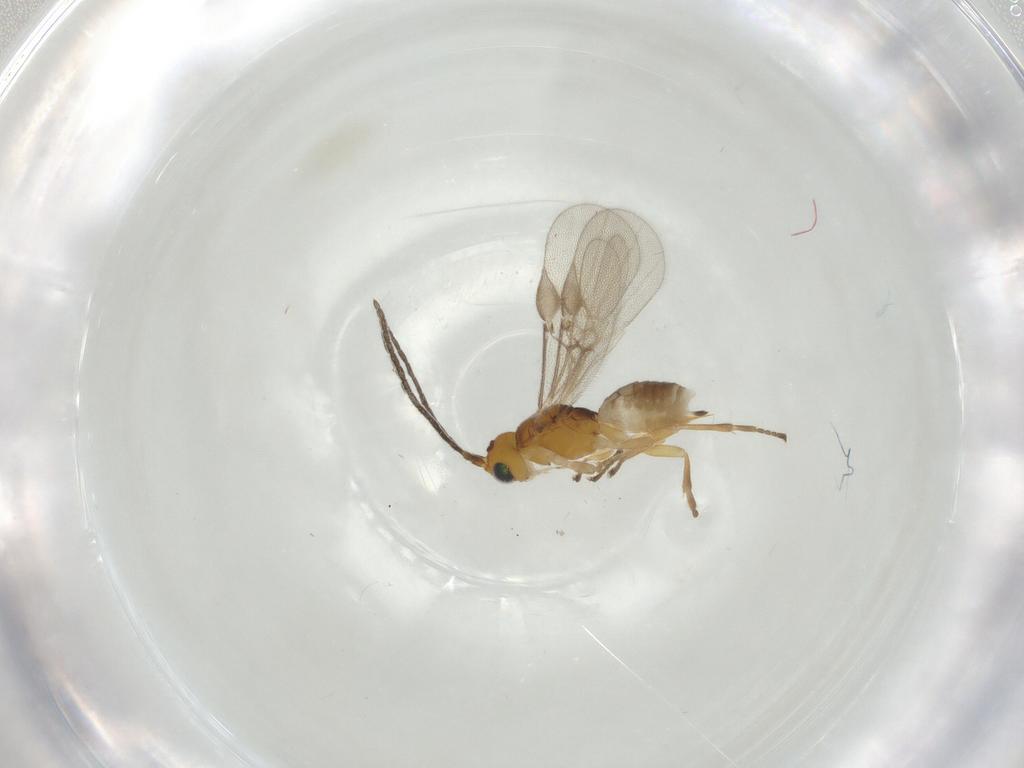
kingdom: Animalia
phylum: Arthropoda
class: Insecta
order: Hymenoptera
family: Braconidae
